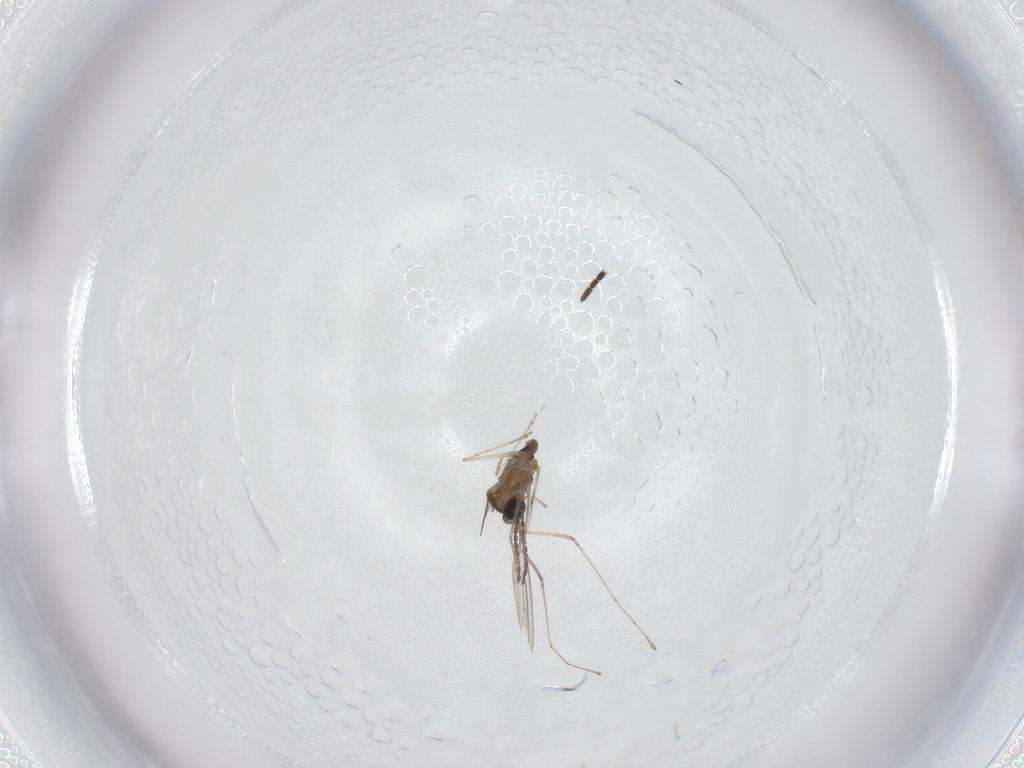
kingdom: Animalia
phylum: Arthropoda
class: Insecta
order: Diptera
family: Cecidomyiidae
